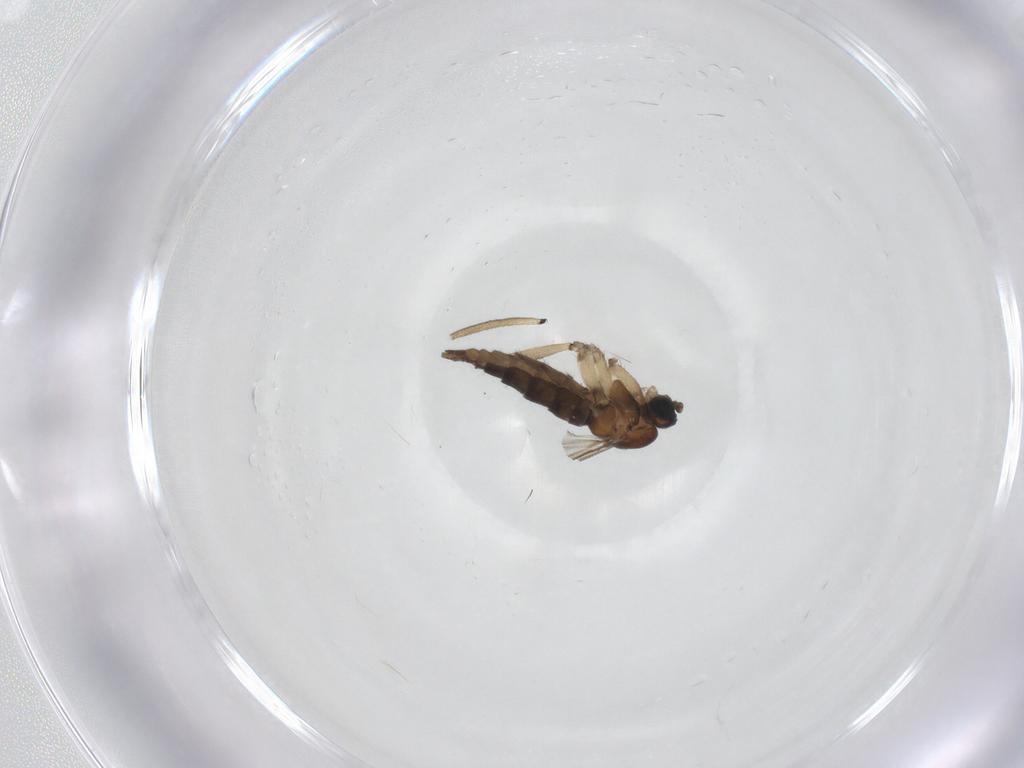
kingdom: Animalia
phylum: Arthropoda
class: Insecta
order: Diptera
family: Sciaridae
